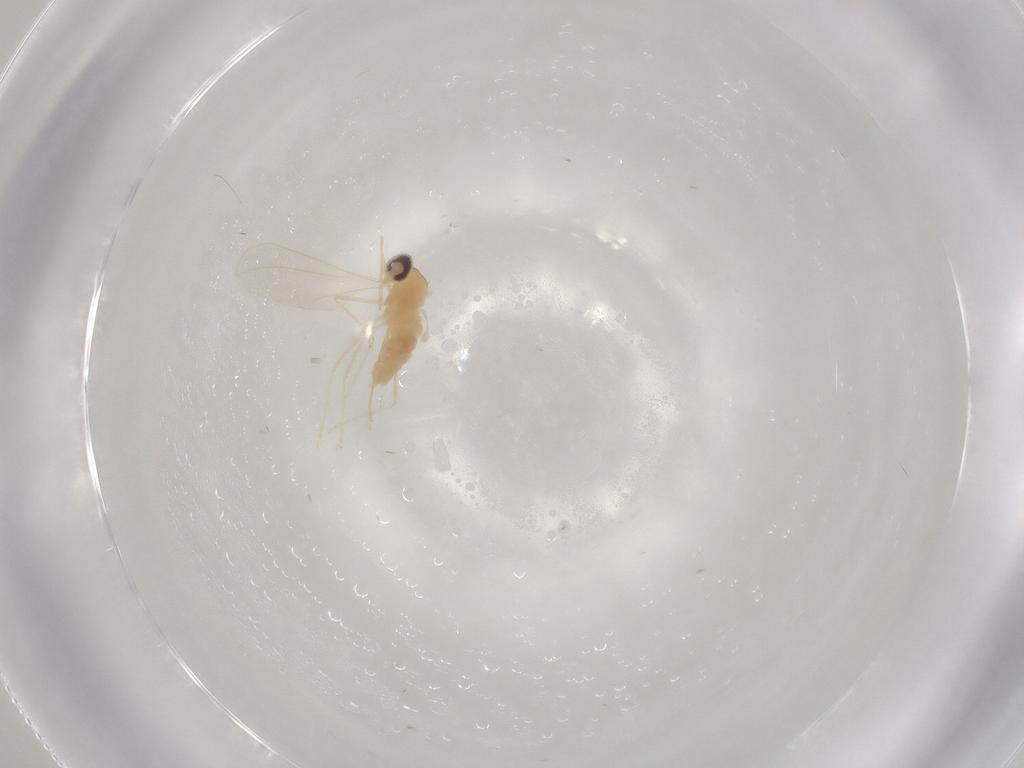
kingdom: Animalia
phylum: Arthropoda
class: Insecta
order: Diptera
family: Cecidomyiidae
